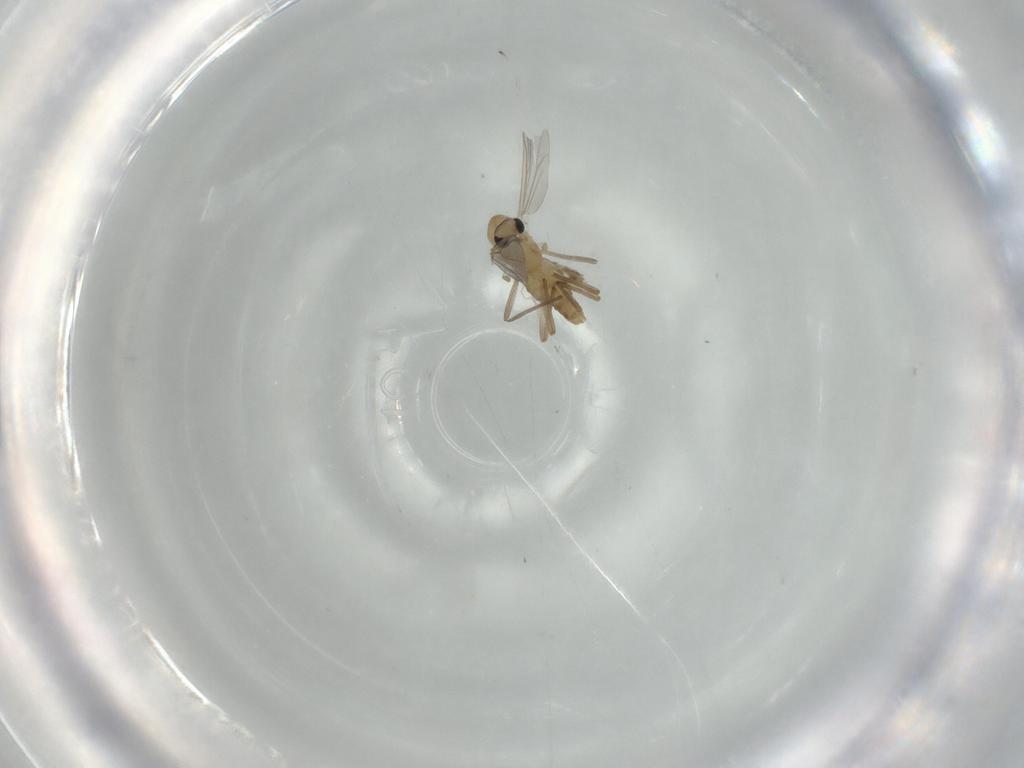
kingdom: Animalia
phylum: Arthropoda
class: Insecta
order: Diptera
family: Chironomidae
